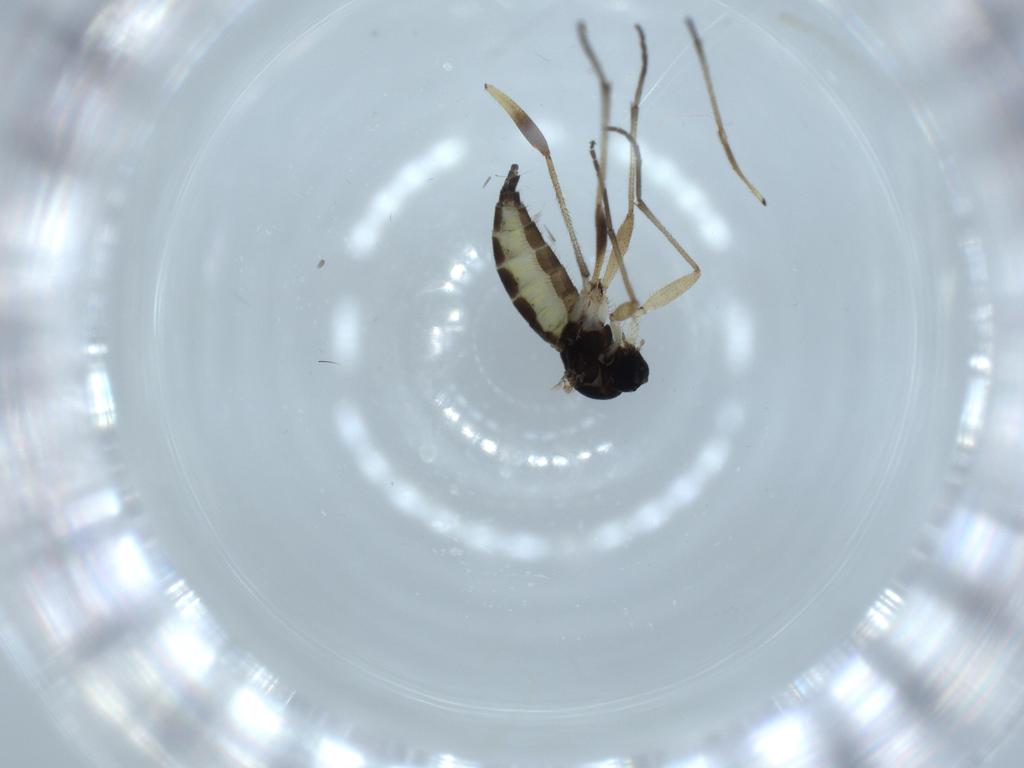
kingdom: Animalia
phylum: Arthropoda
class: Insecta
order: Diptera
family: Sciaridae
